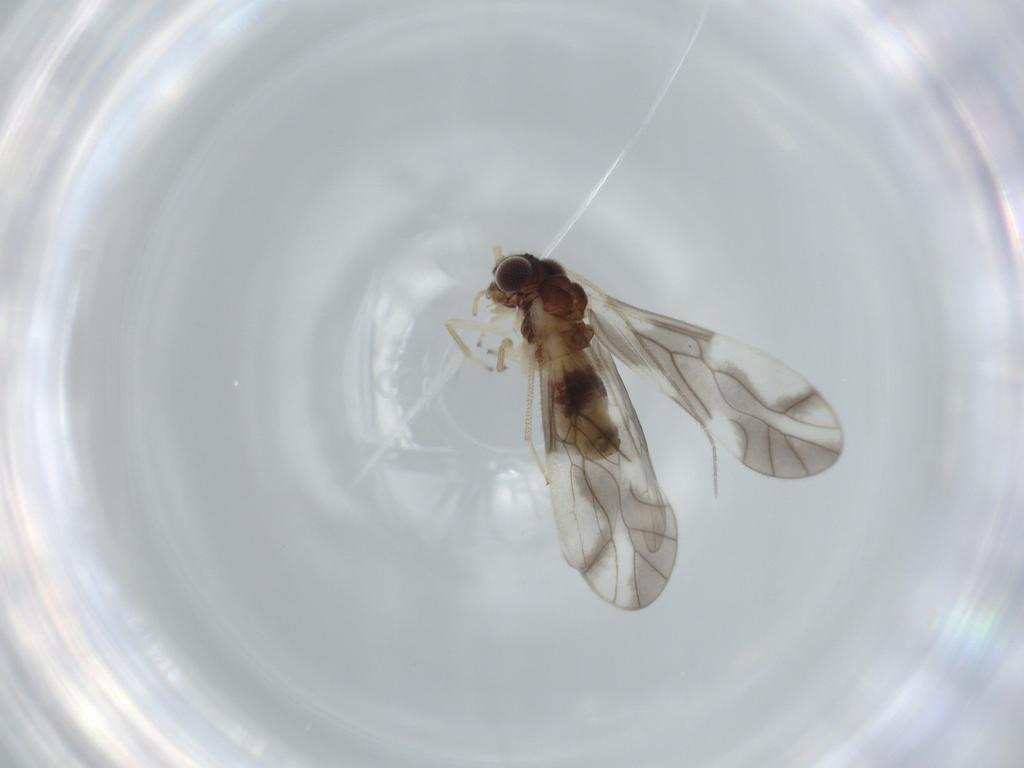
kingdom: Animalia
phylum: Arthropoda
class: Insecta
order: Psocodea
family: Caeciliusidae
